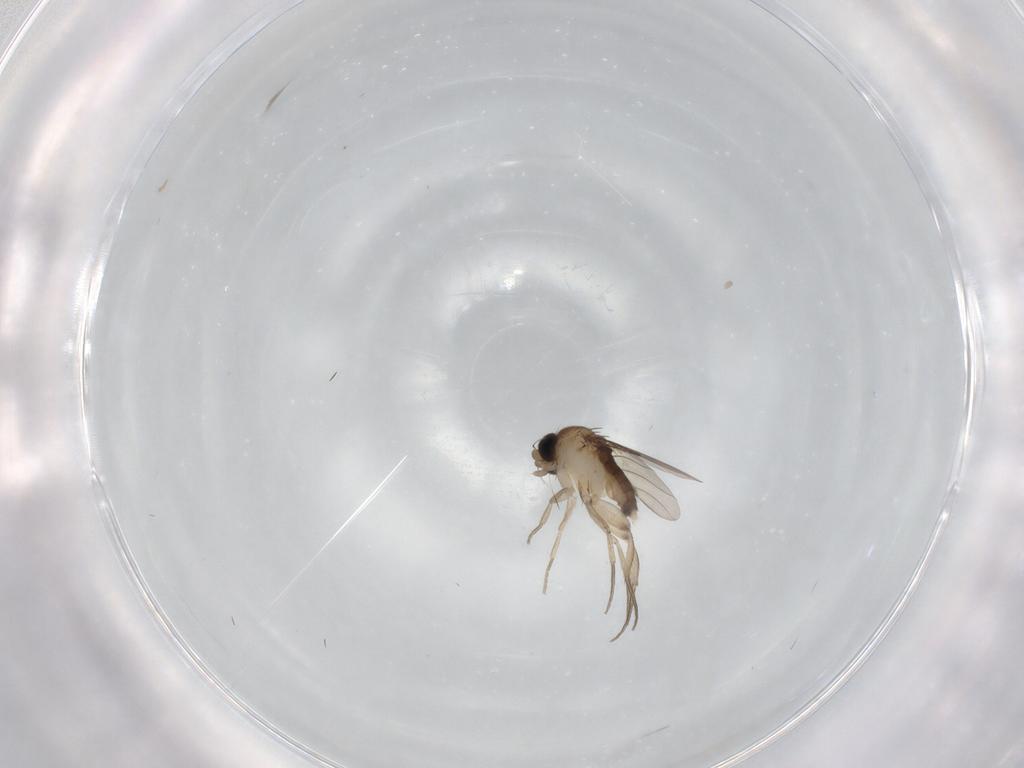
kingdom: Animalia
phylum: Arthropoda
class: Insecta
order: Diptera
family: Phoridae
